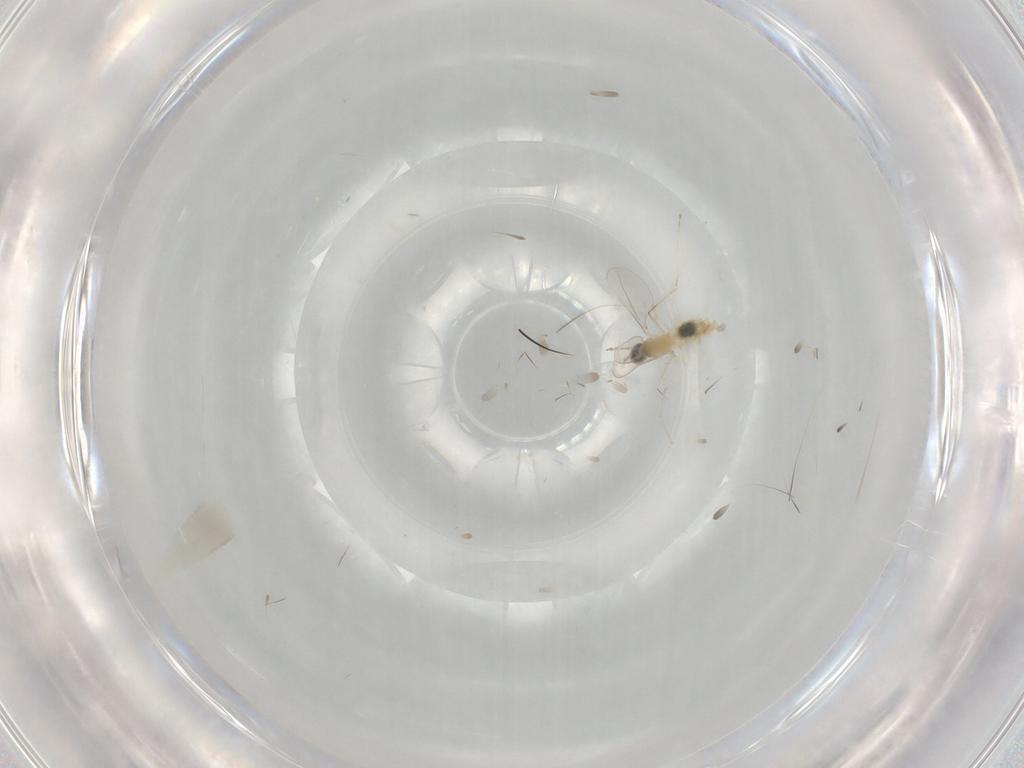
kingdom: Animalia
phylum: Arthropoda
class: Insecta
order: Diptera
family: Cecidomyiidae
